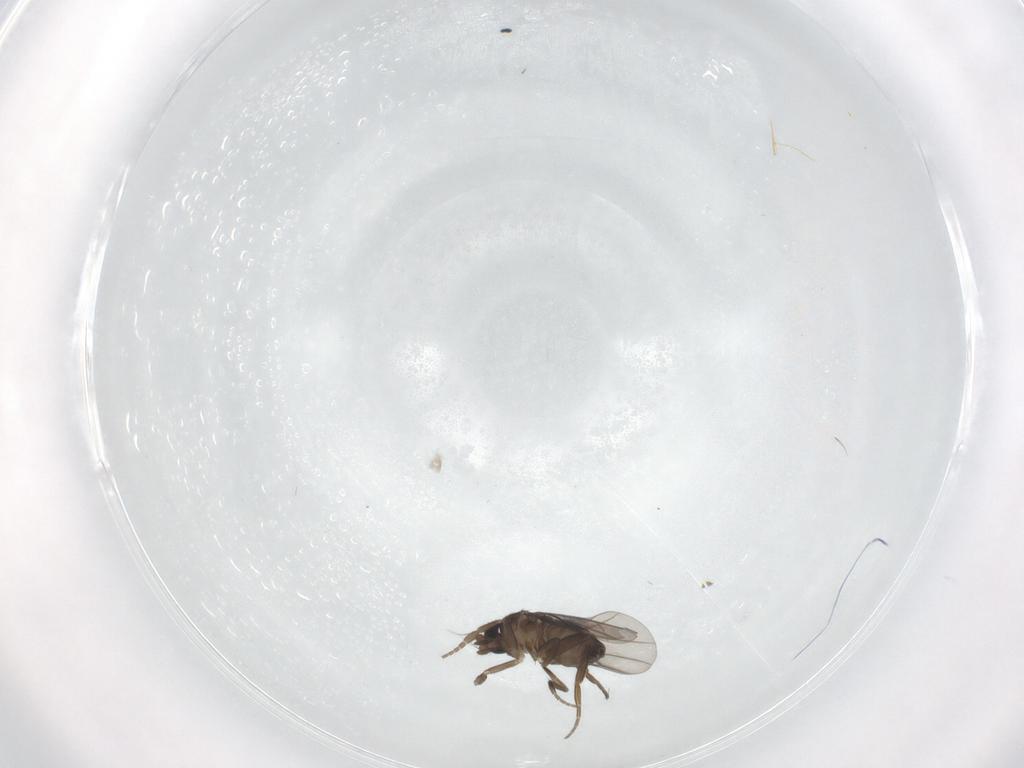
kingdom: Animalia
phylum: Arthropoda
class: Insecta
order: Diptera
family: Phoridae
